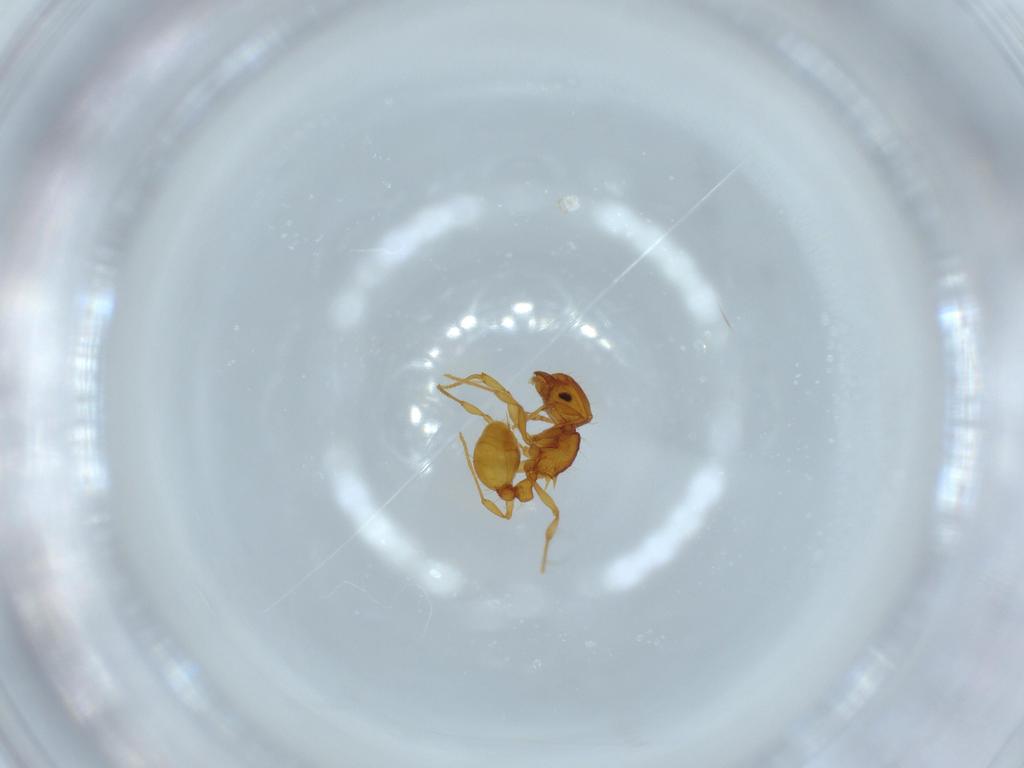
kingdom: Animalia
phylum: Arthropoda
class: Insecta
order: Hymenoptera
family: Formicidae
